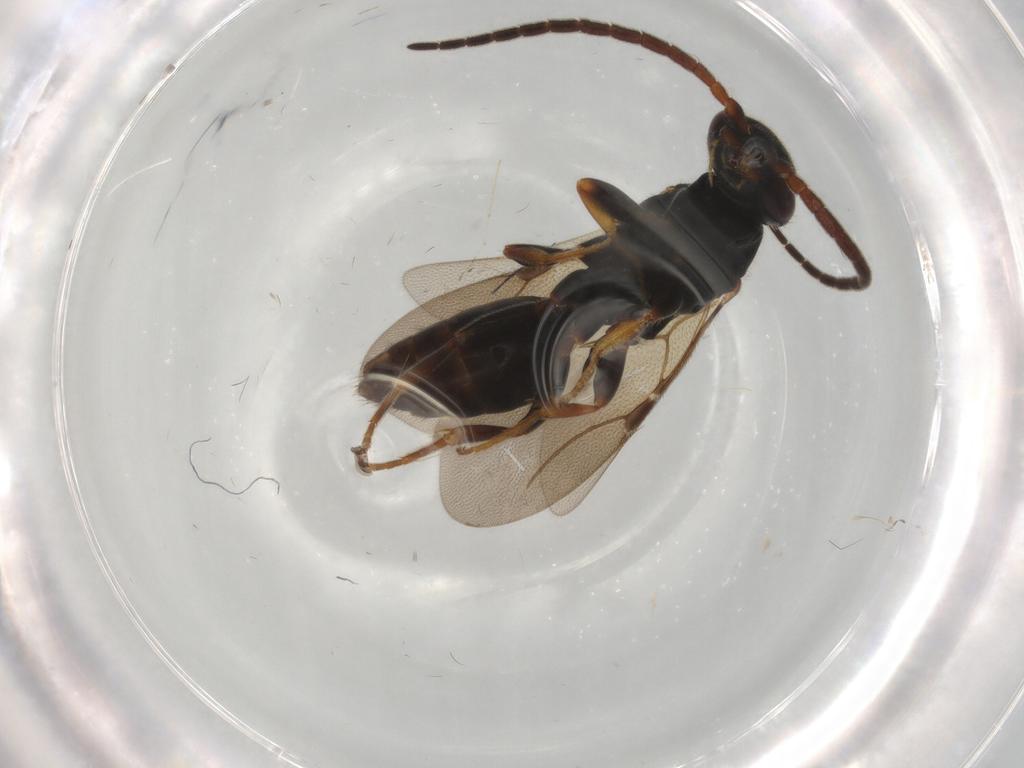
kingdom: Animalia
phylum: Arthropoda
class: Insecta
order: Hymenoptera
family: Bethylidae
